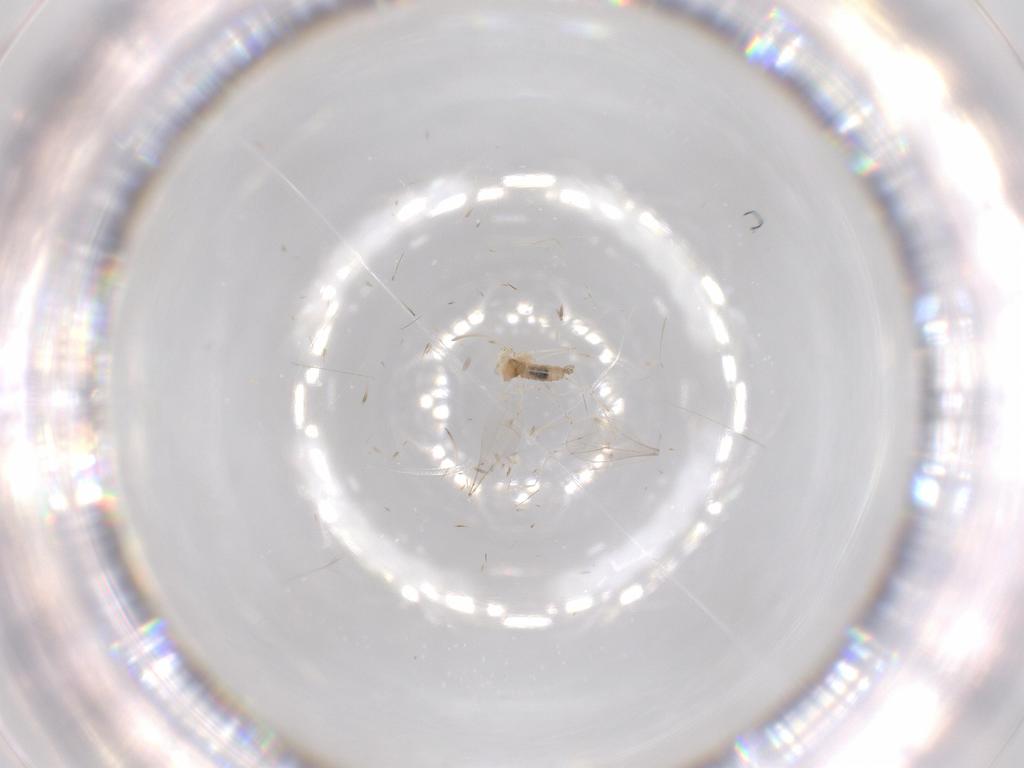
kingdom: Animalia
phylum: Arthropoda
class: Insecta
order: Diptera
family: Cecidomyiidae
